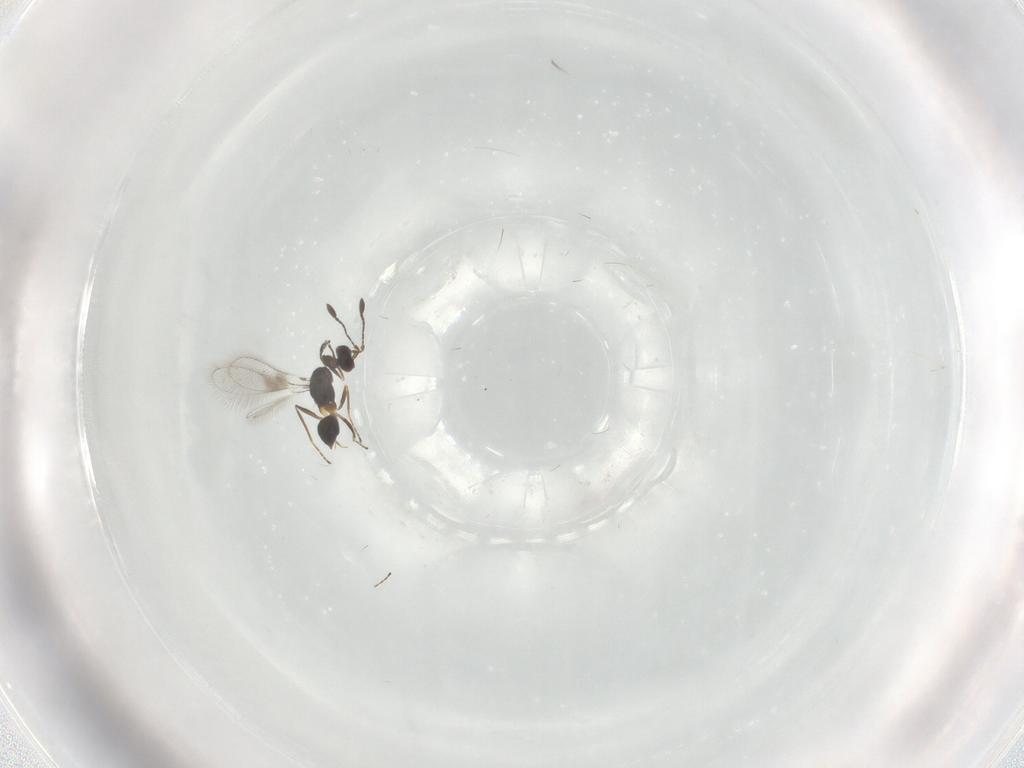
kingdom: Animalia
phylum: Arthropoda
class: Insecta
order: Hymenoptera
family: Mymaridae
